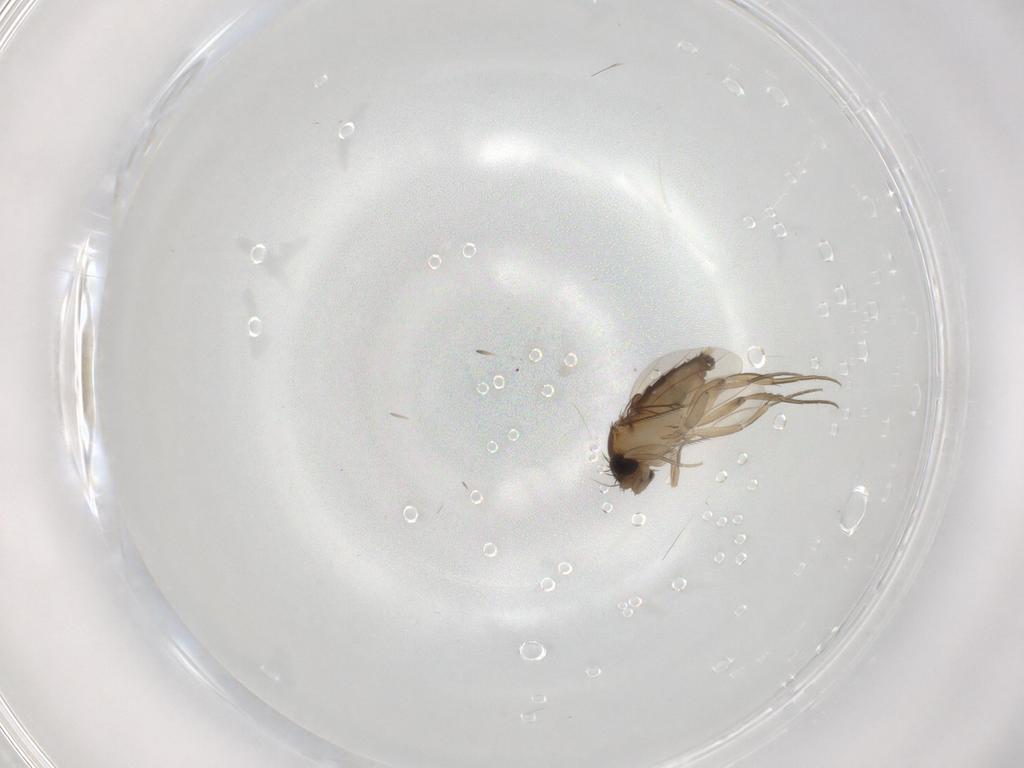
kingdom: Animalia
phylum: Arthropoda
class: Insecta
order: Diptera
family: Phoridae
